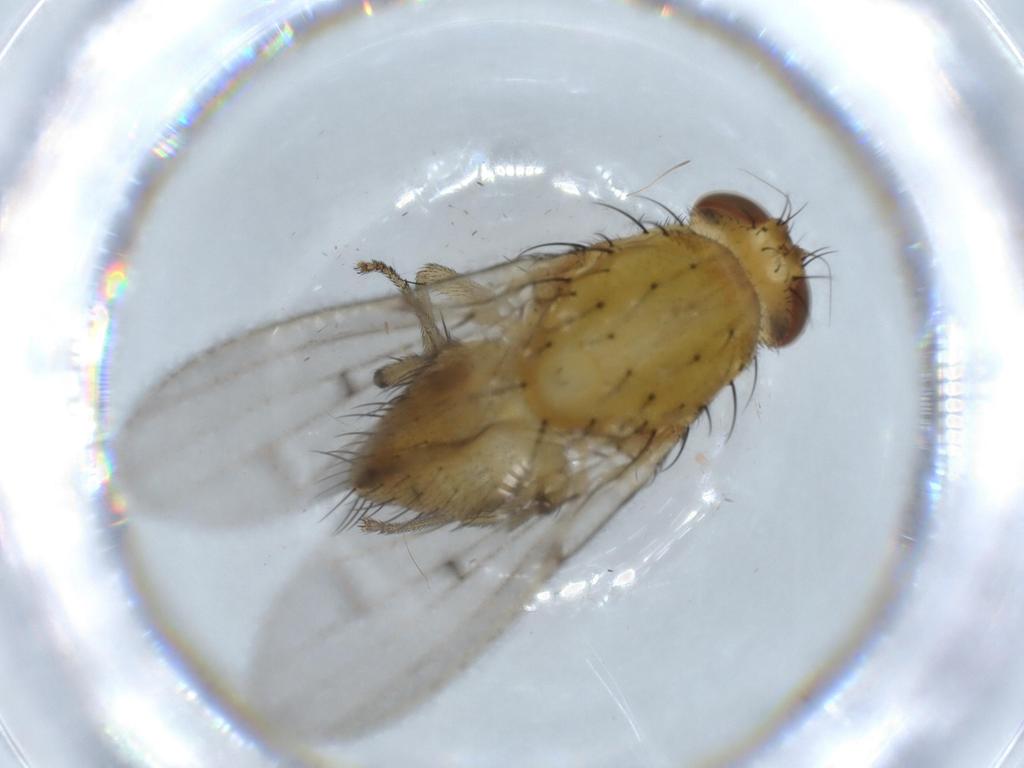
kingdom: Animalia
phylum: Arthropoda
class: Insecta
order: Diptera
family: Lauxaniidae
